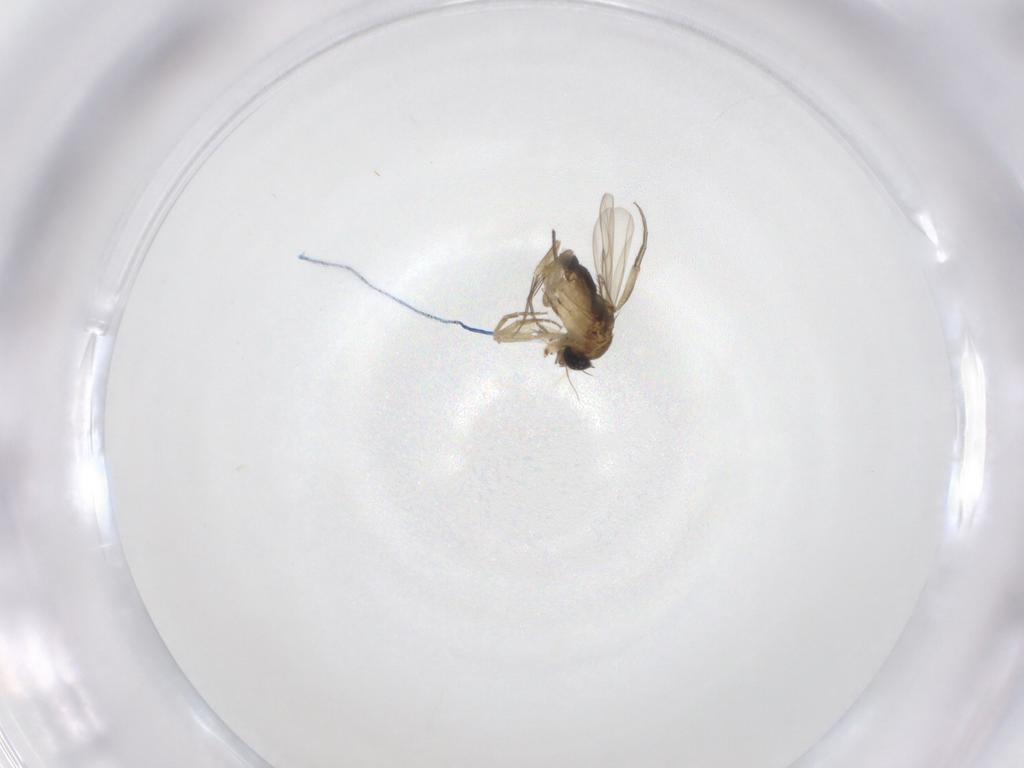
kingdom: Animalia
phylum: Arthropoda
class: Insecta
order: Diptera
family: Phoridae
